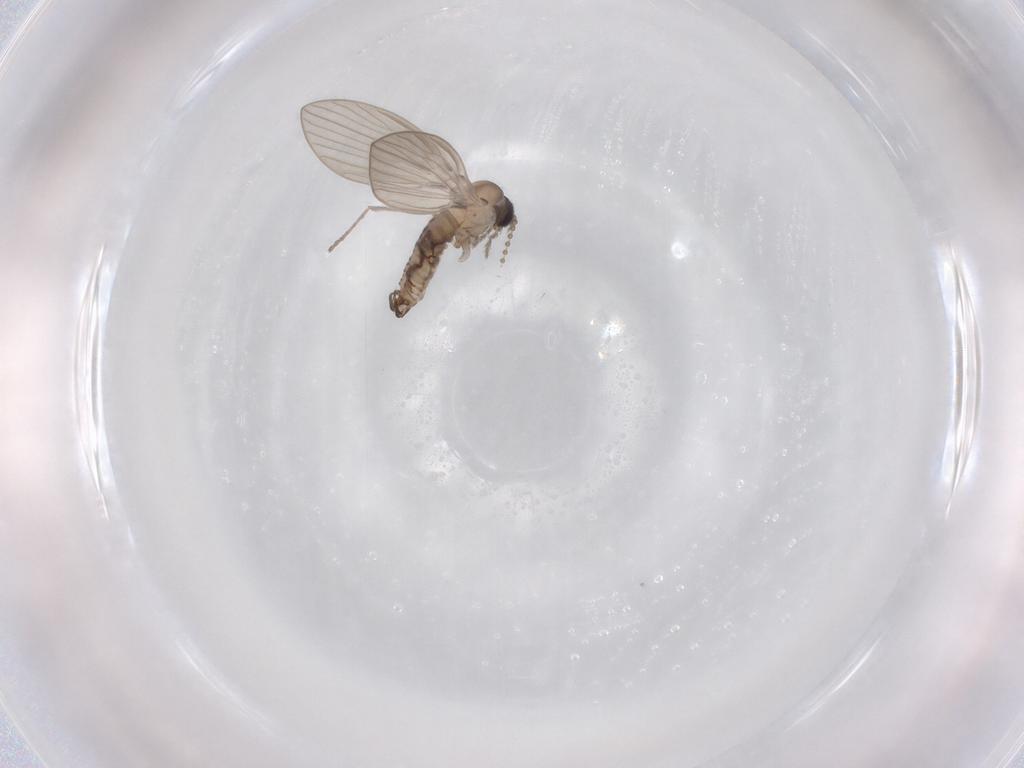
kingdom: Animalia
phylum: Arthropoda
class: Insecta
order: Diptera
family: Psychodidae
